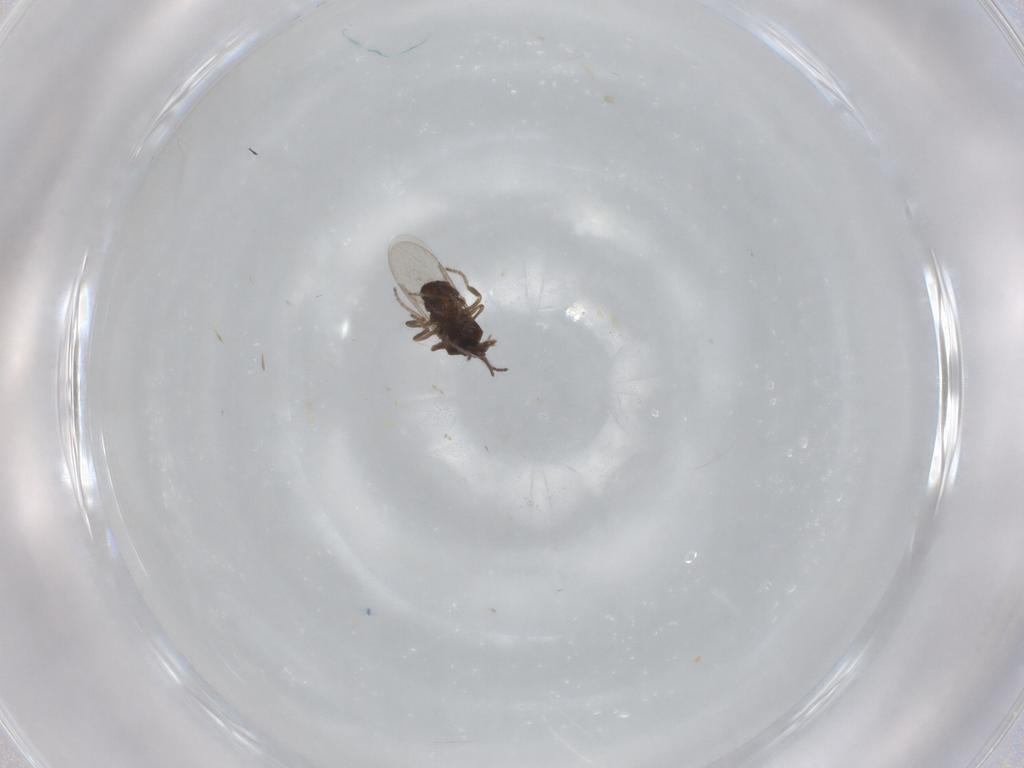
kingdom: Animalia
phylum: Arthropoda
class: Insecta
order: Diptera
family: Ceratopogonidae
